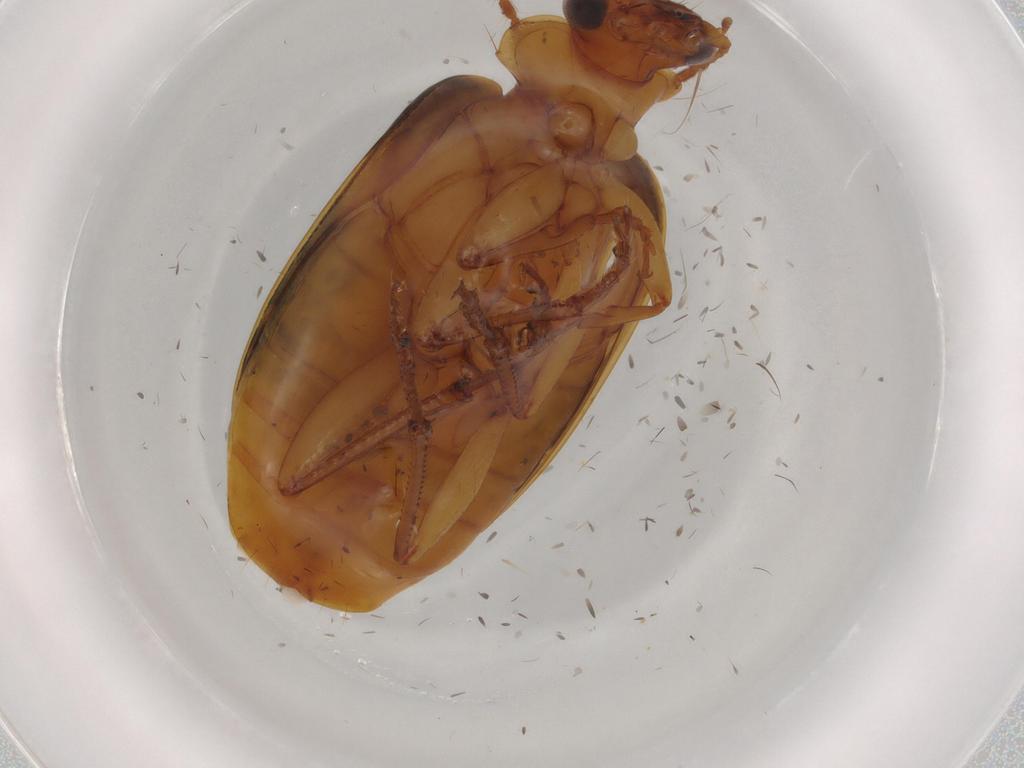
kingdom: Animalia
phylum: Arthropoda
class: Insecta
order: Coleoptera
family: Carabidae
